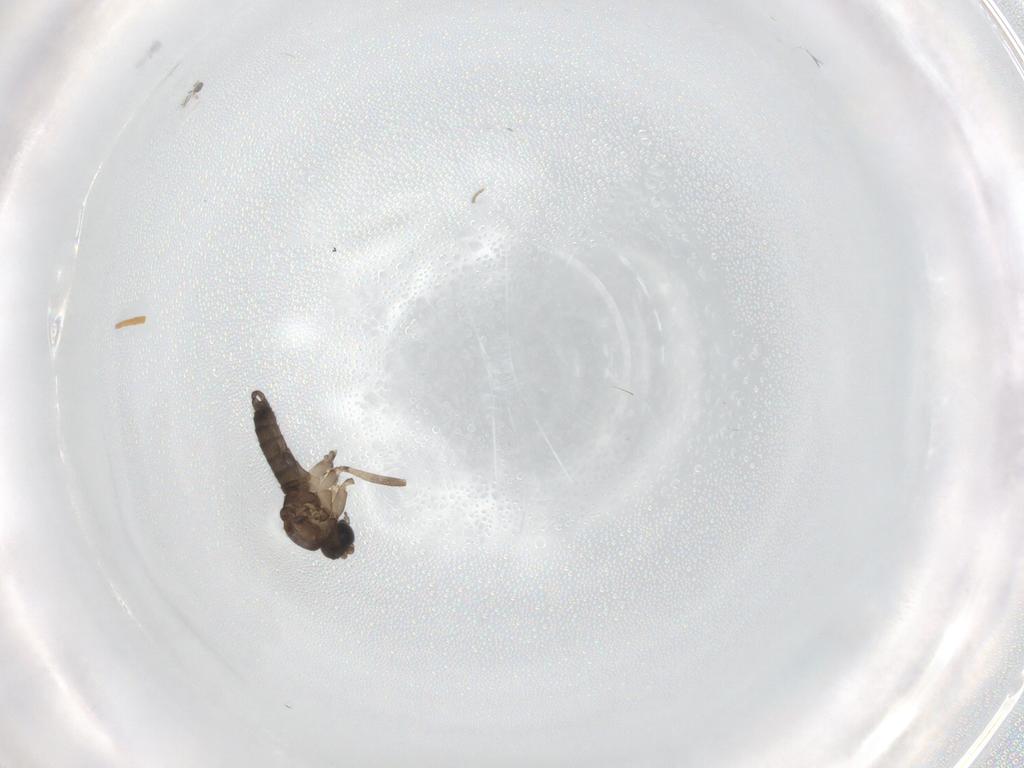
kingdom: Animalia
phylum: Arthropoda
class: Insecta
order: Diptera
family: Sciaridae
